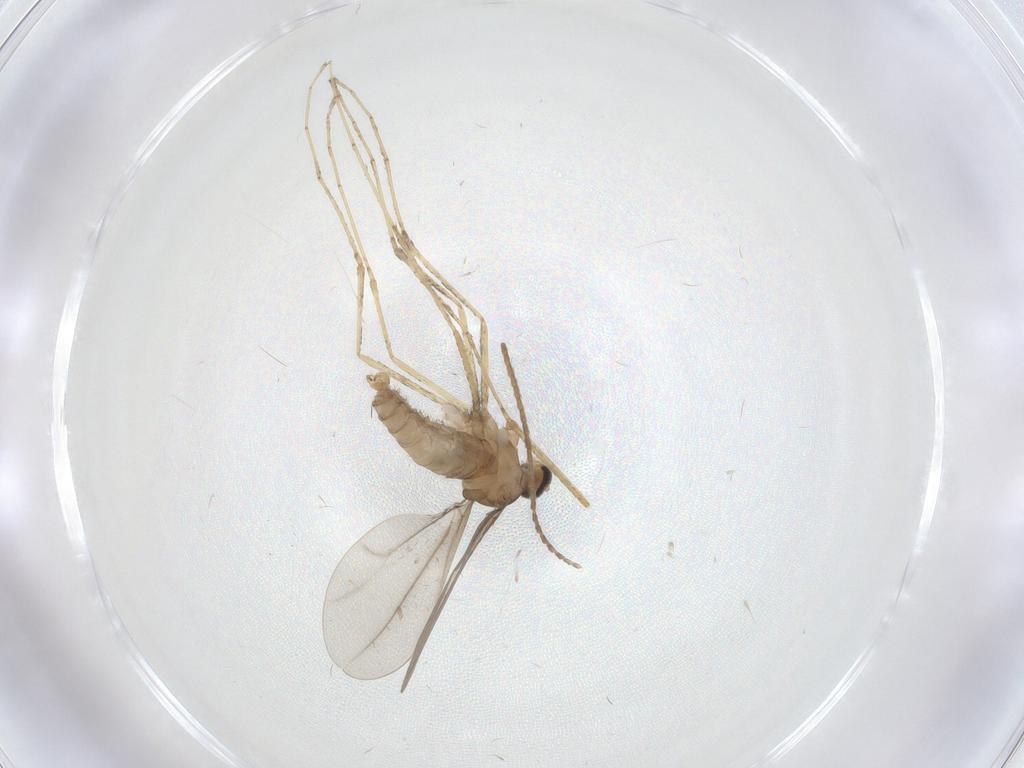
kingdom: Animalia
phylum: Arthropoda
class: Insecta
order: Diptera
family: Cecidomyiidae
